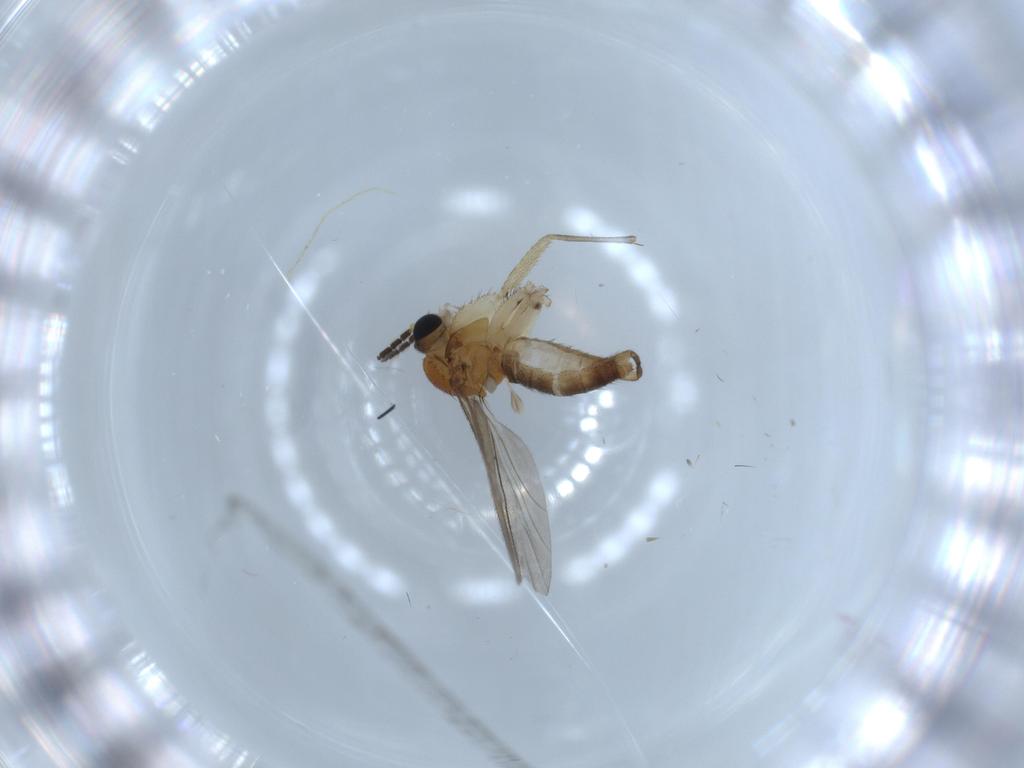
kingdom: Animalia
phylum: Arthropoda
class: Insecta
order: Diptera
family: Sciaridae
